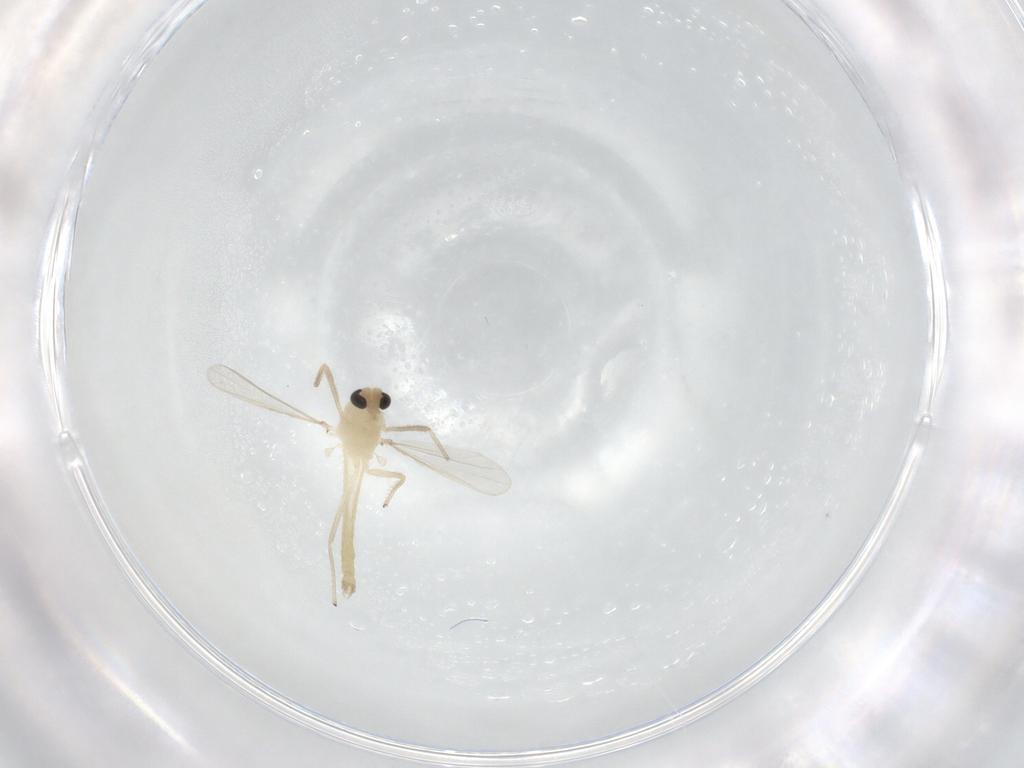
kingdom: Animalia
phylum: Arthropoda
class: Insecta
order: Diptera
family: Chironomidae
